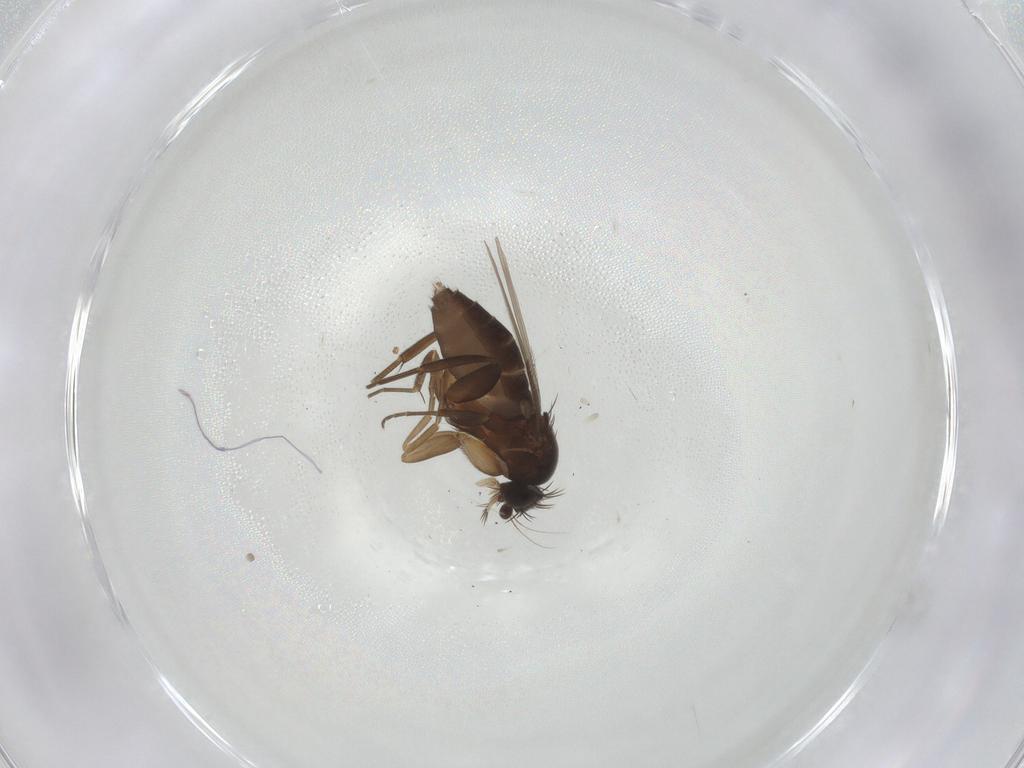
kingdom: Animalia
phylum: Arthropoda
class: Insecta
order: Diptera
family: Phoridae
